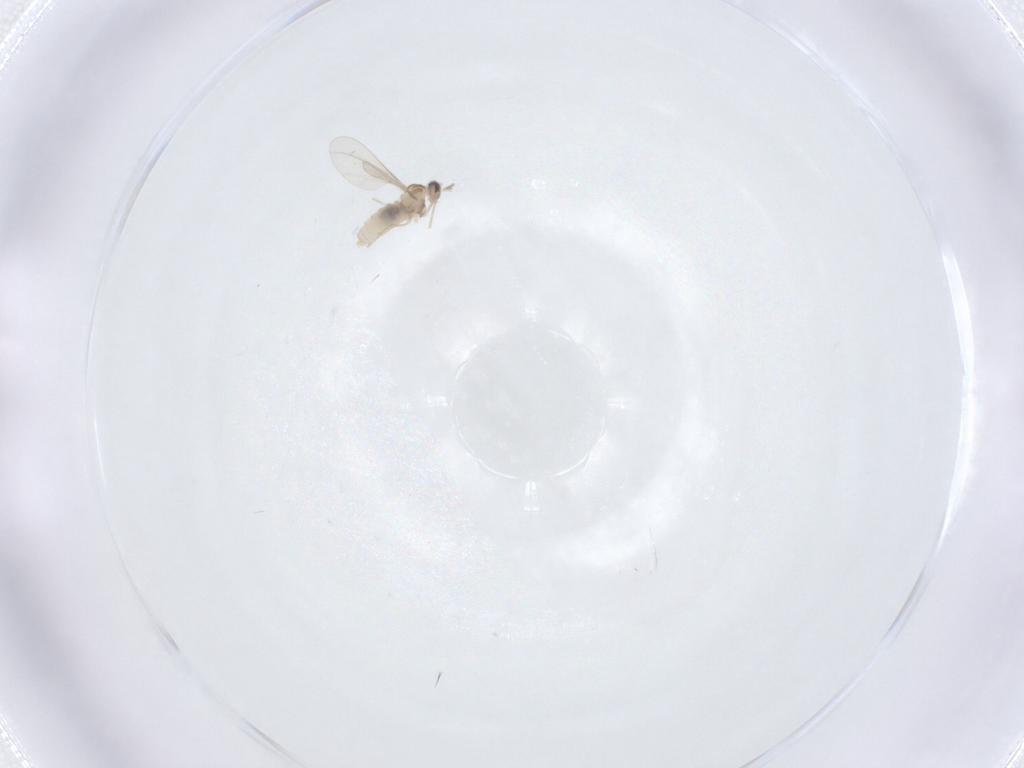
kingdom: Animalia
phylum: Arthropoda
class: Insecta
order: Diptera
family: Cecidomyiidae
